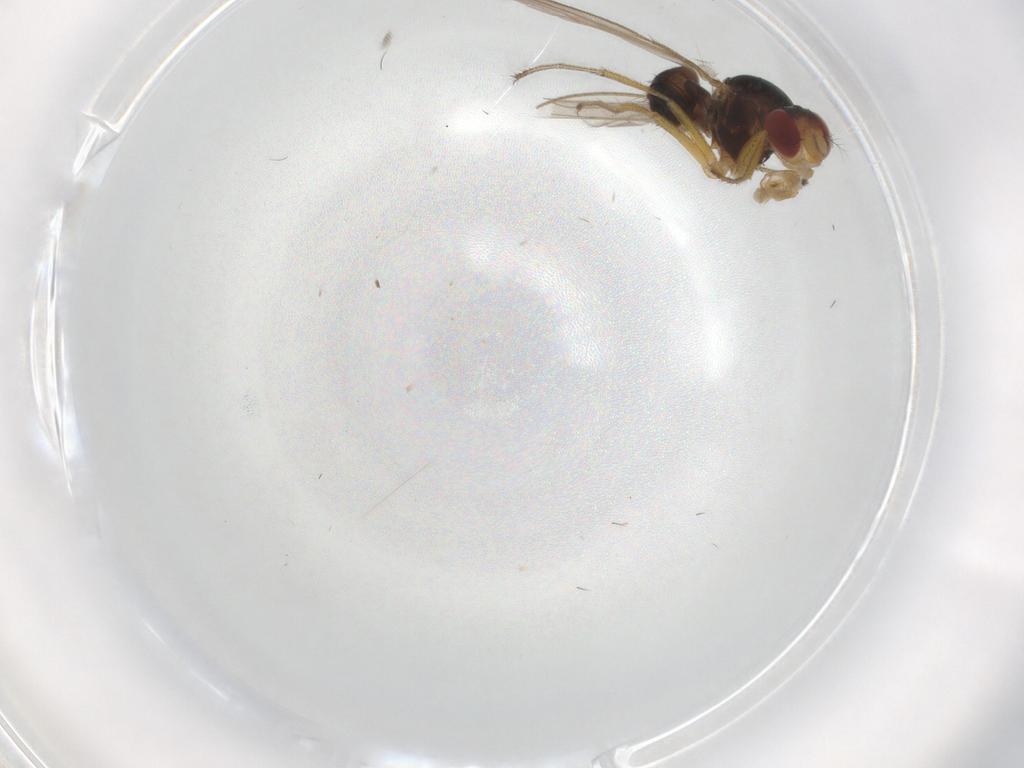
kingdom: Animalia
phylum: Arthropoda
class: Insecta
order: Diptera
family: Drosophilidae
